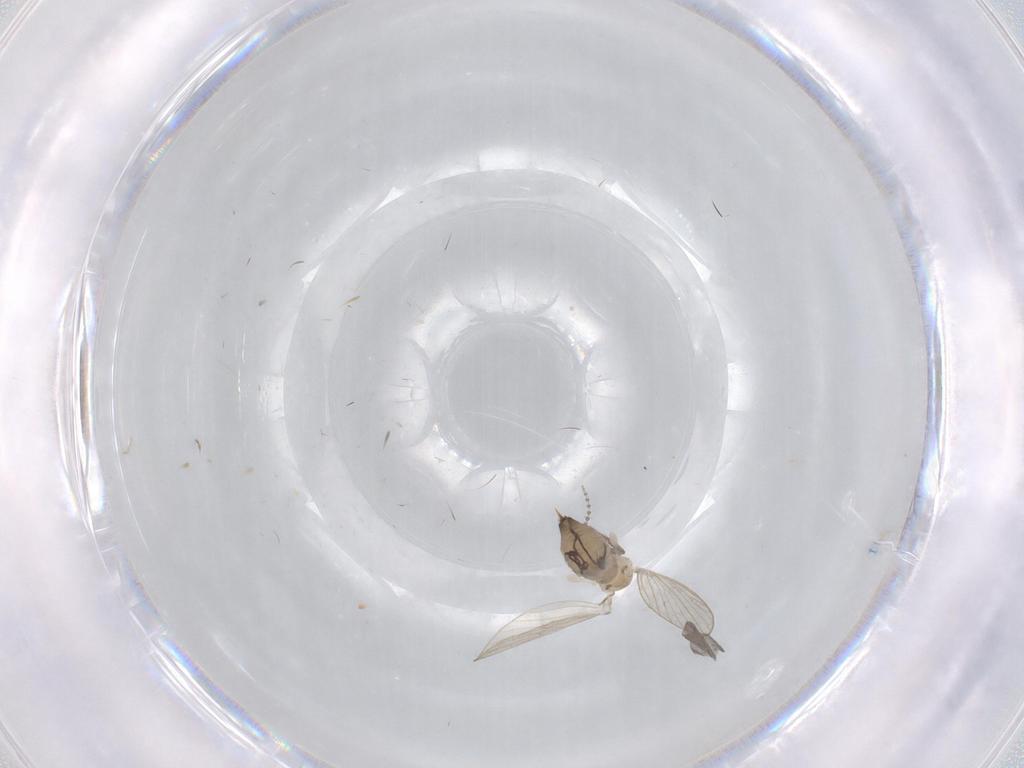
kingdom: Animalia
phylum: Arthropoda
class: Insecta
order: Diptera
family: Psychodidae
